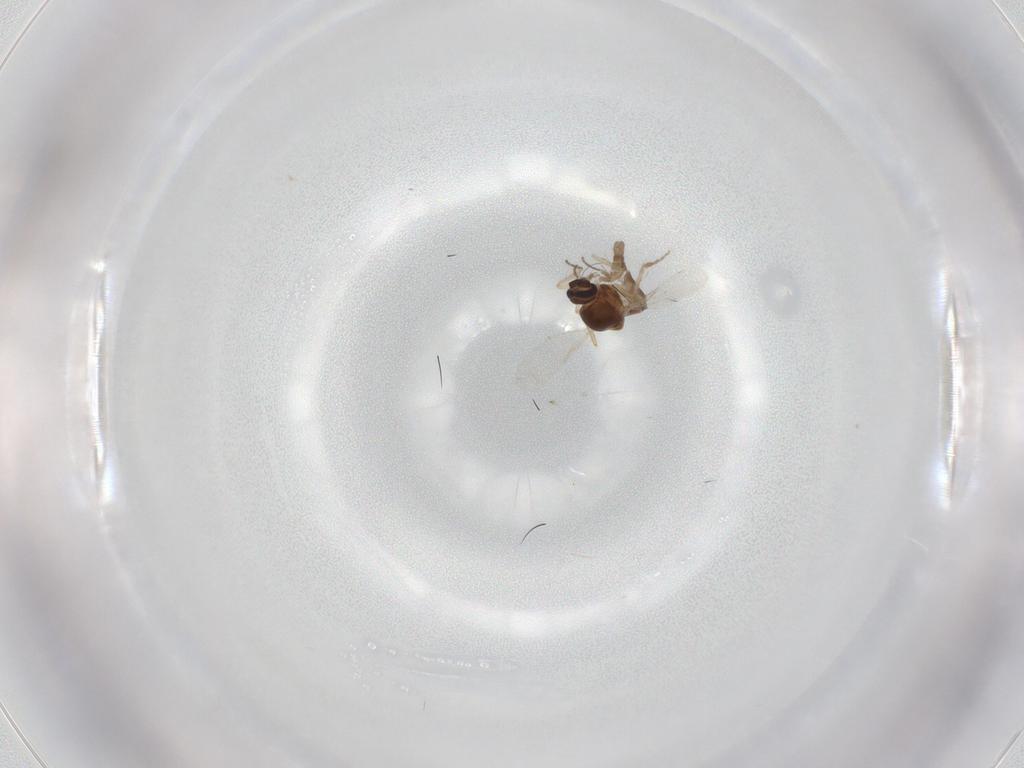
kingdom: Animalia
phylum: Arthropoda
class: Insecta
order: Diptera
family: Ceratopogonidae
